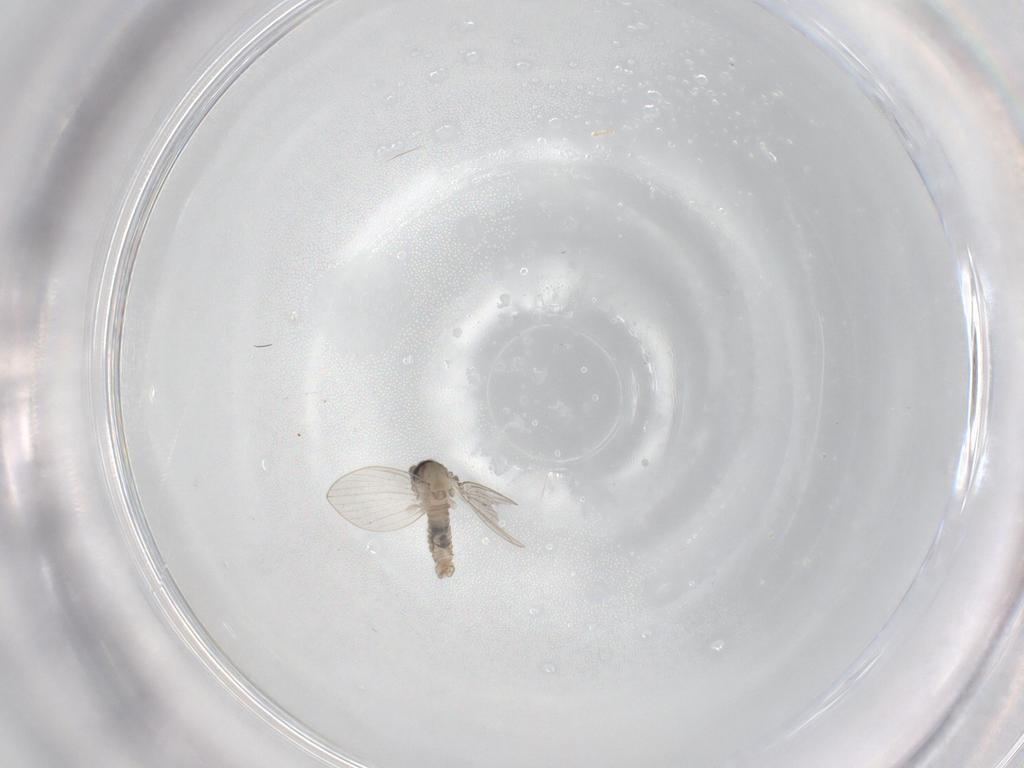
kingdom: Animalia
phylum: Arthropoda
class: Insecta
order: Diptera
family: Psychodidae
